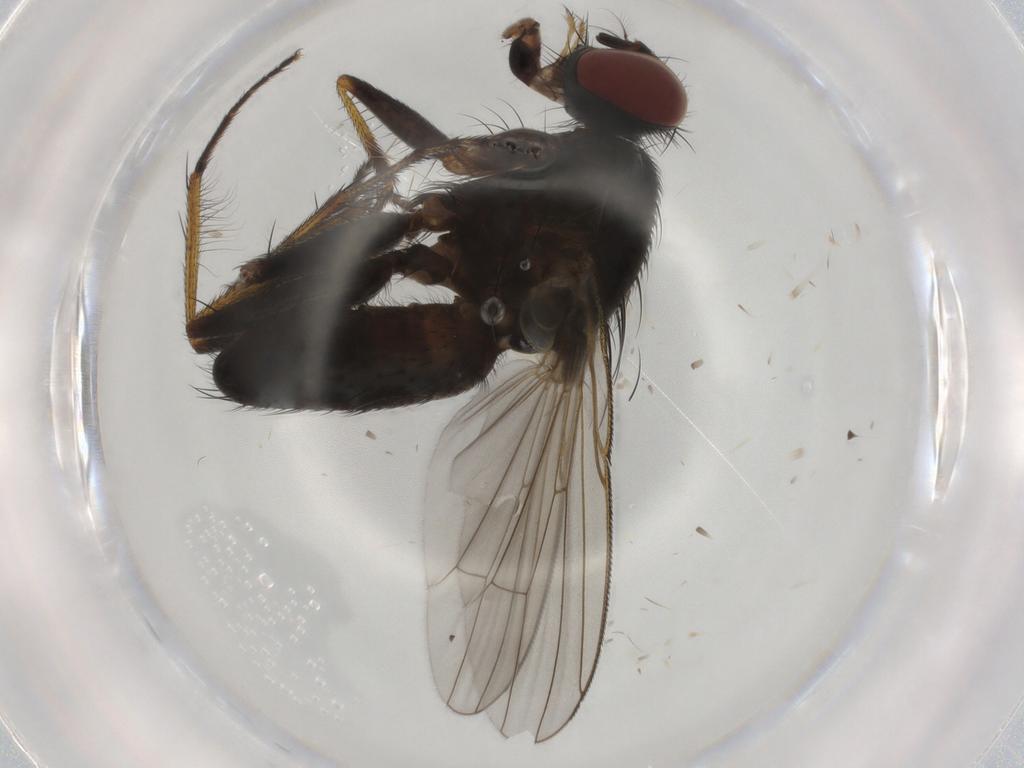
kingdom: Animalia
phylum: Arthropoda
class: Insecta
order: Diptera
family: Muscidae
